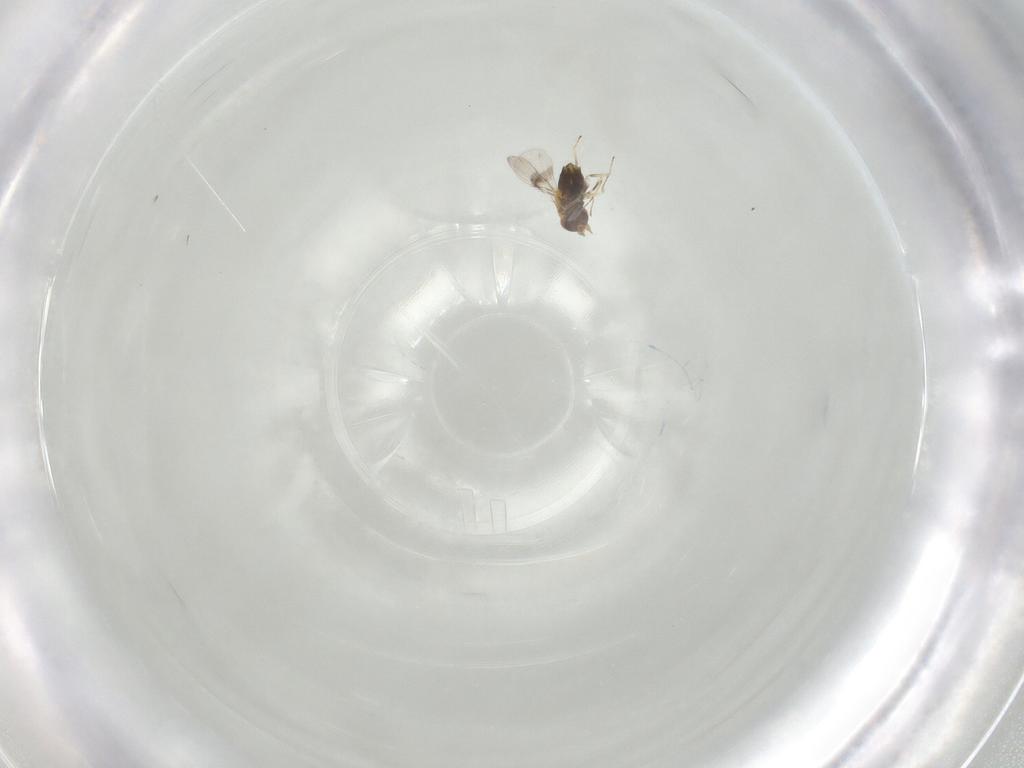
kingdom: Animalia
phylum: Arthropoda
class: Insecta
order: Hymenoptera
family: Trichogrammatidae
